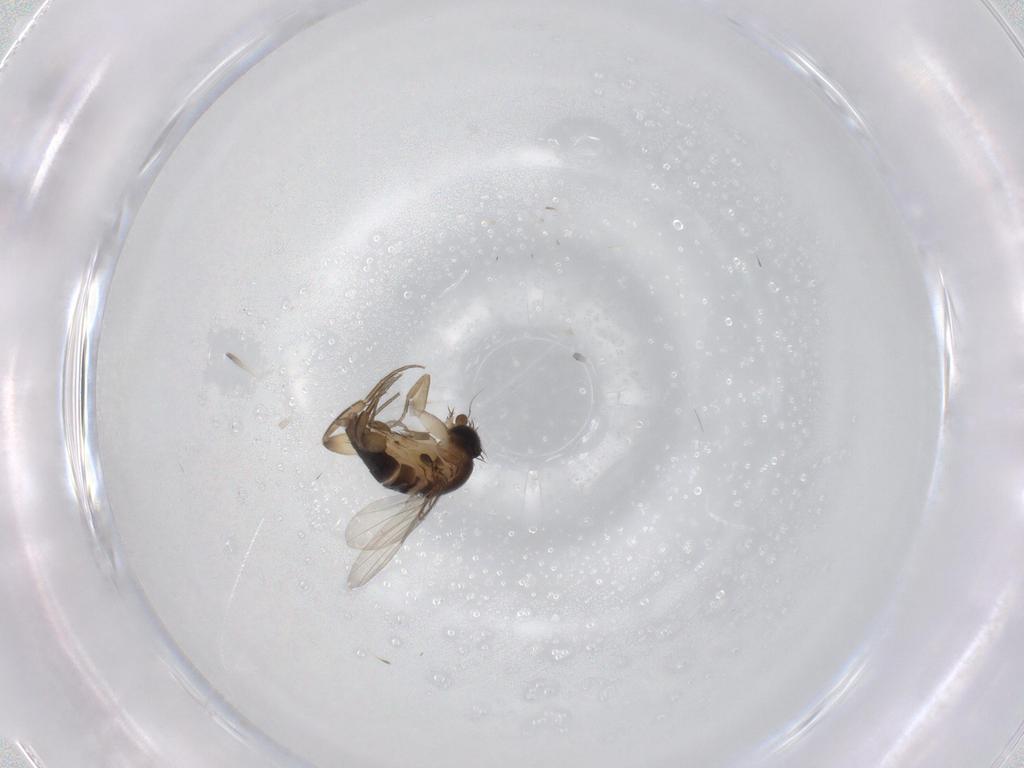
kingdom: Animalia
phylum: Arthropoda
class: Insecta
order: Diptera
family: Phoridae
